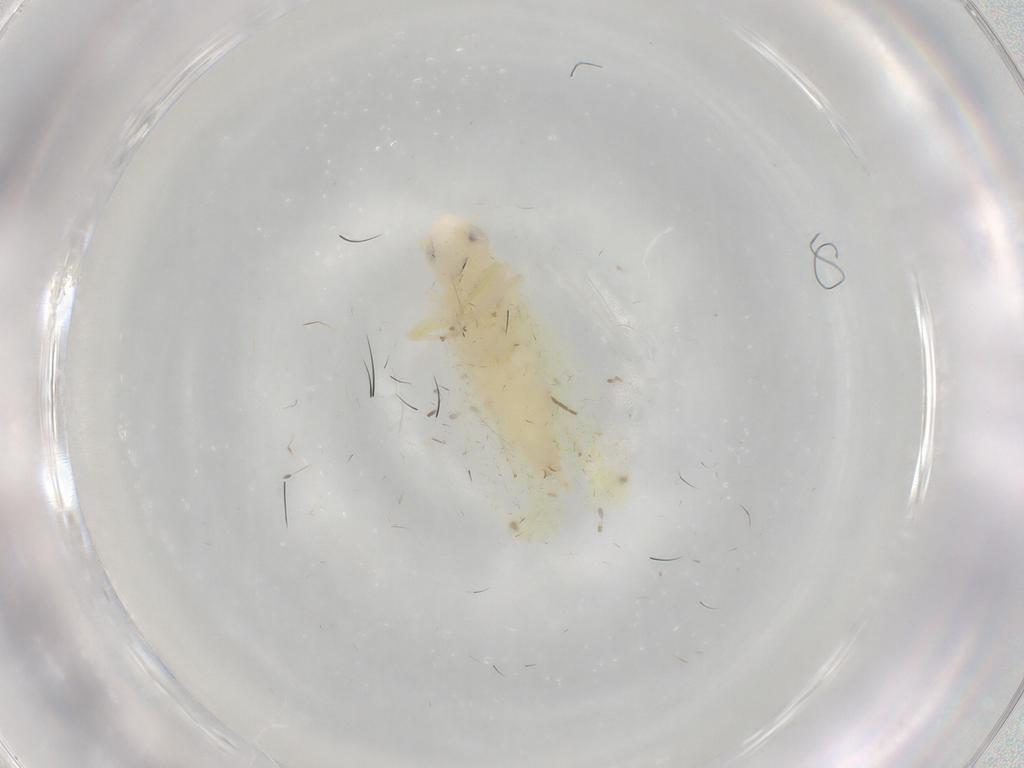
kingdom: Animalia
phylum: Arthropoda
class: Insecta
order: Hemiptera
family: Cicadellidae
